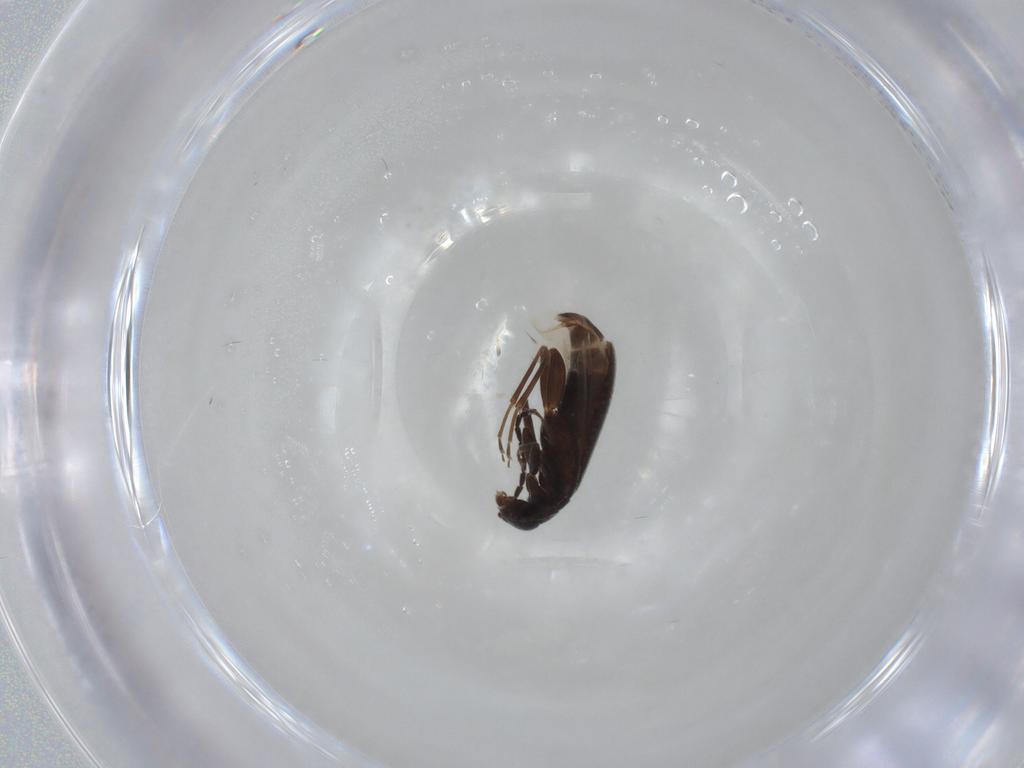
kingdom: Animalia
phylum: Arthropoda
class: Insecta
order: Coleoptera
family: Scraptiidae
